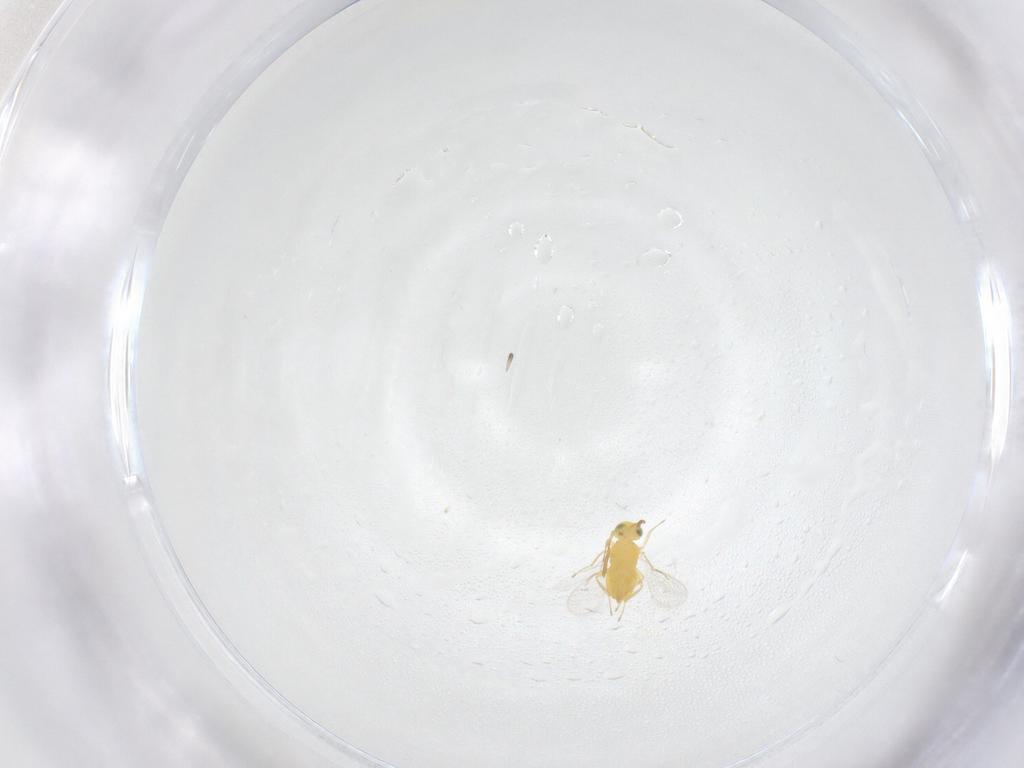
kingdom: Animalia
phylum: Arthropoda
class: Insecta
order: Hymenoptera
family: Aphelinidae
